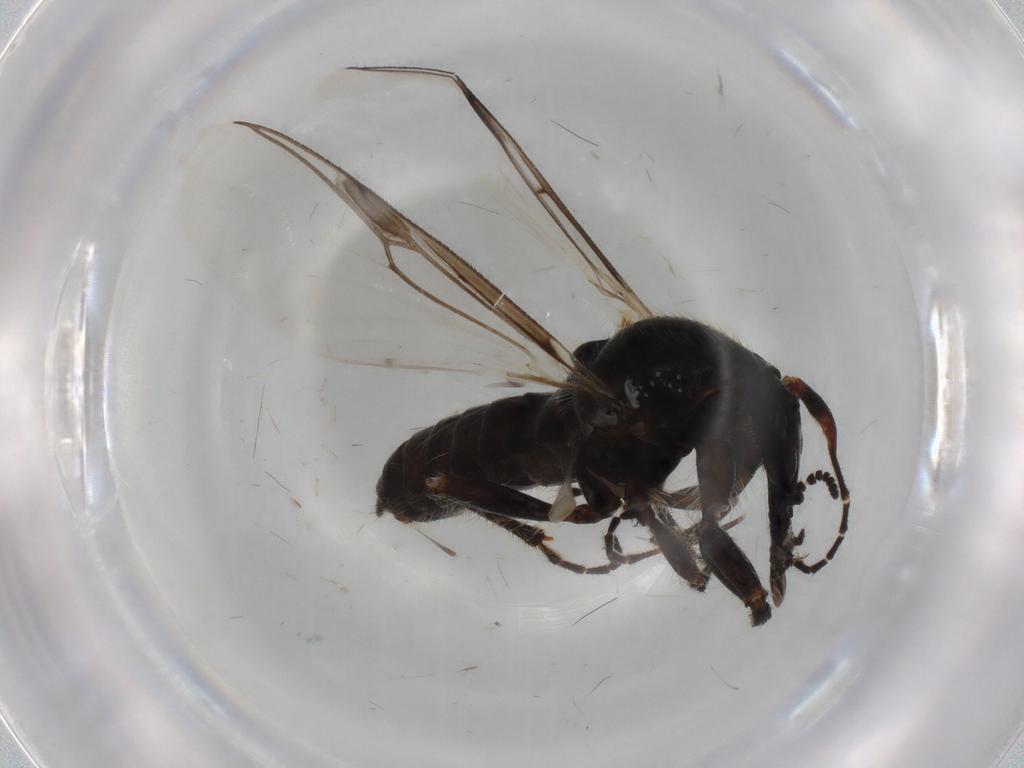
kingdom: Animalia
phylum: Arthropoda
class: Insecta
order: Diptera
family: Bibionidae
